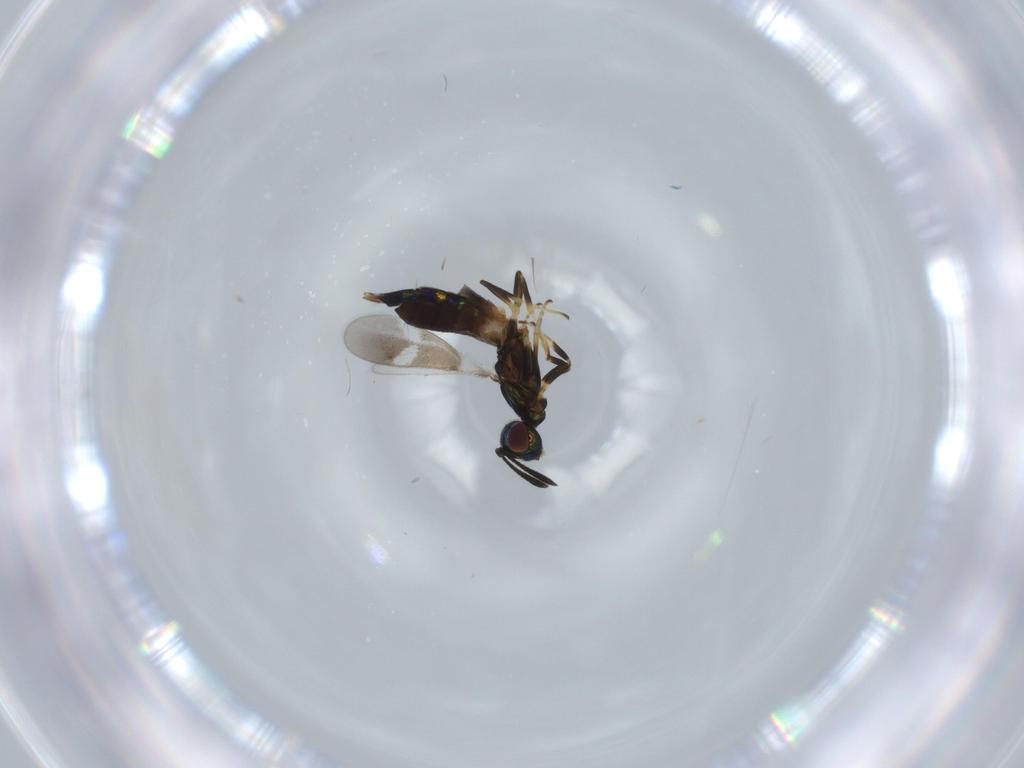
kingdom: Animalia
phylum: Arthropoda
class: Insecta
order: Hymenoptera
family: Eupelmidae
